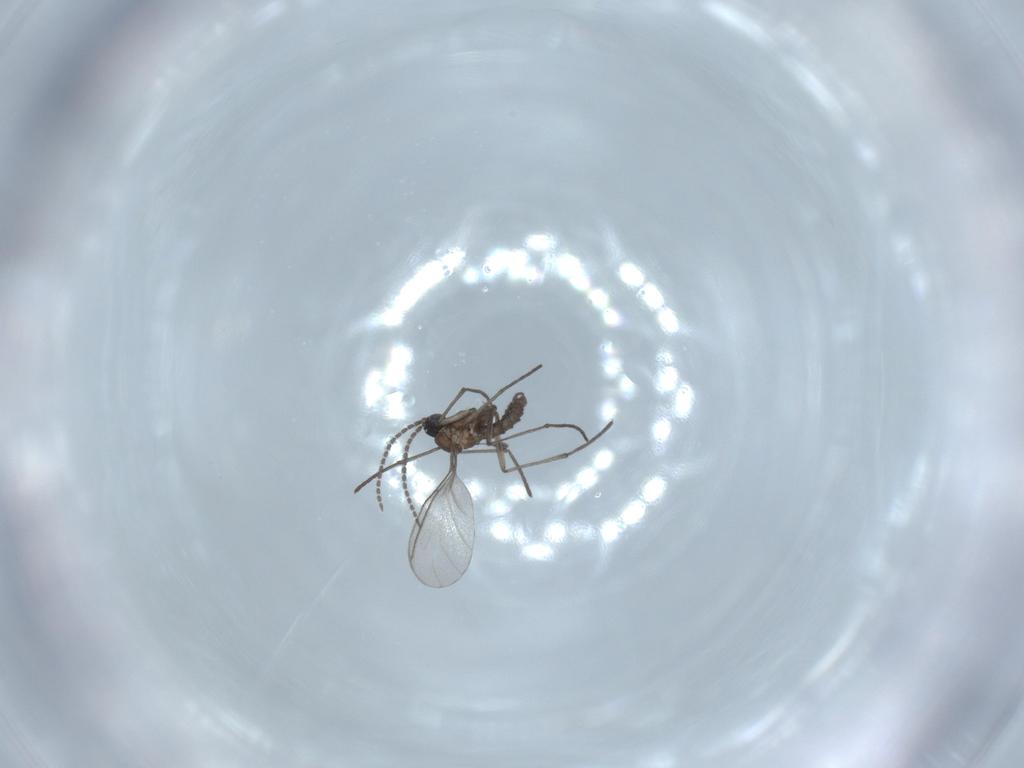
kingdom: Animalia
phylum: Arthropoda
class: Insecta
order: Diptera
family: Sciaridae
